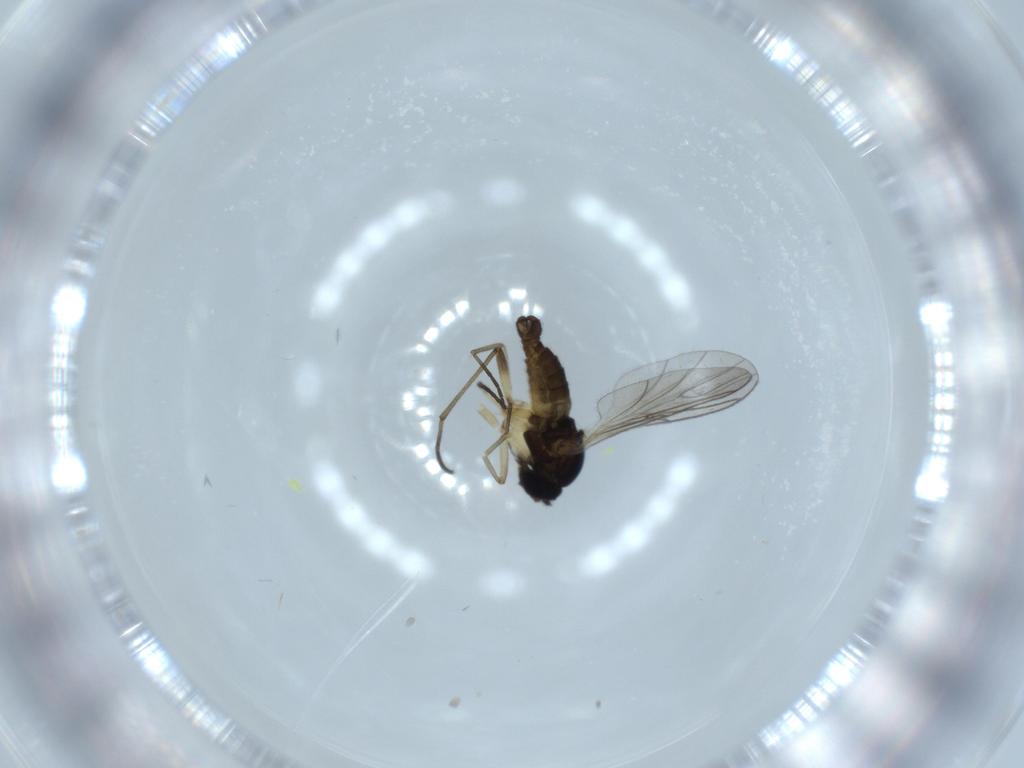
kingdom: Animalia
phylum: Arthropoda
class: Insecta
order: Diptera
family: Sciaridae
